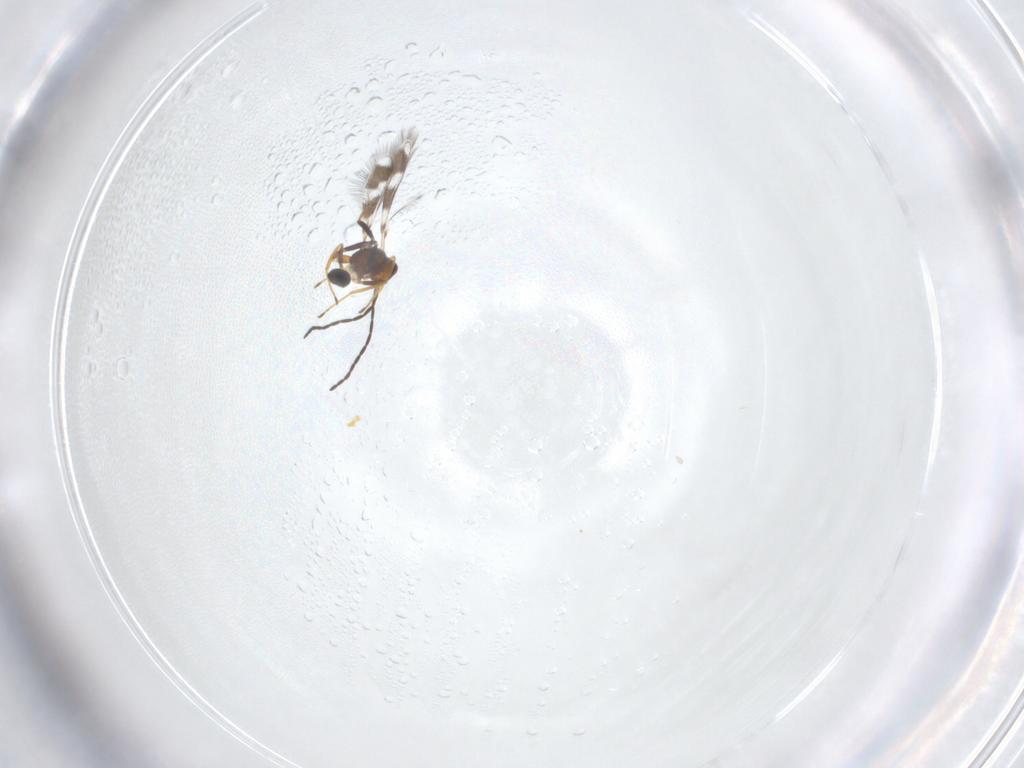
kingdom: Animalia
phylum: Arthropoda
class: Insecta
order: Hymenoptera
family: Mymaridae
